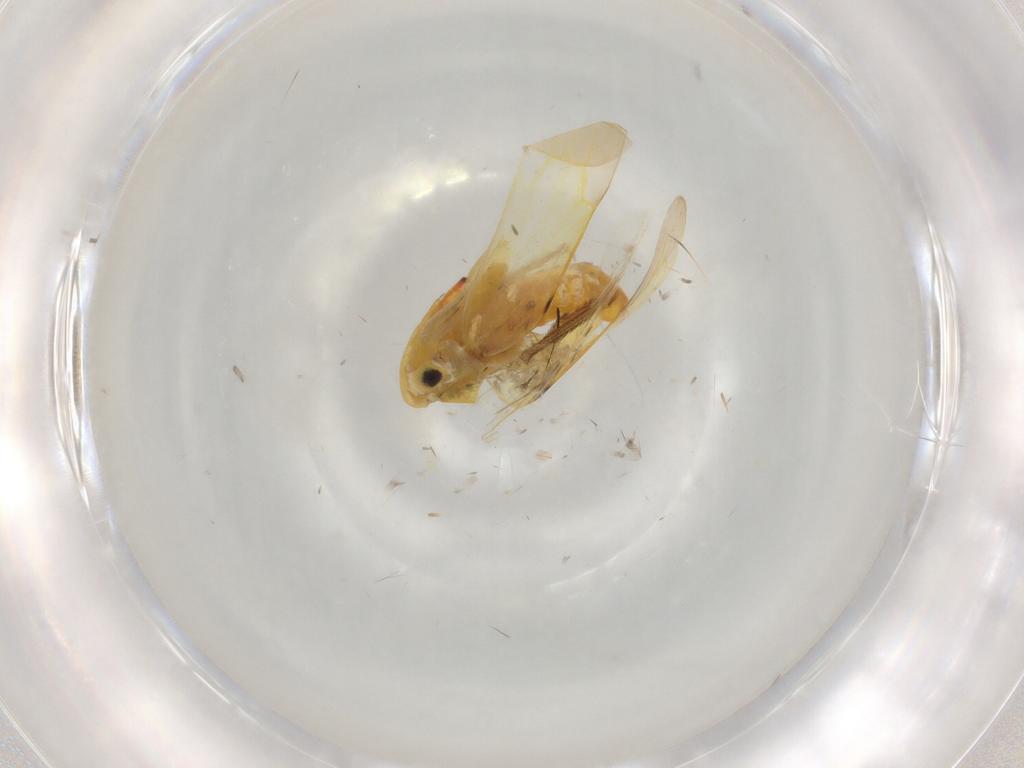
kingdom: Animalia
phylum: Arthropoda
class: Insecta
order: Hemiptera
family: Cicadellidae
